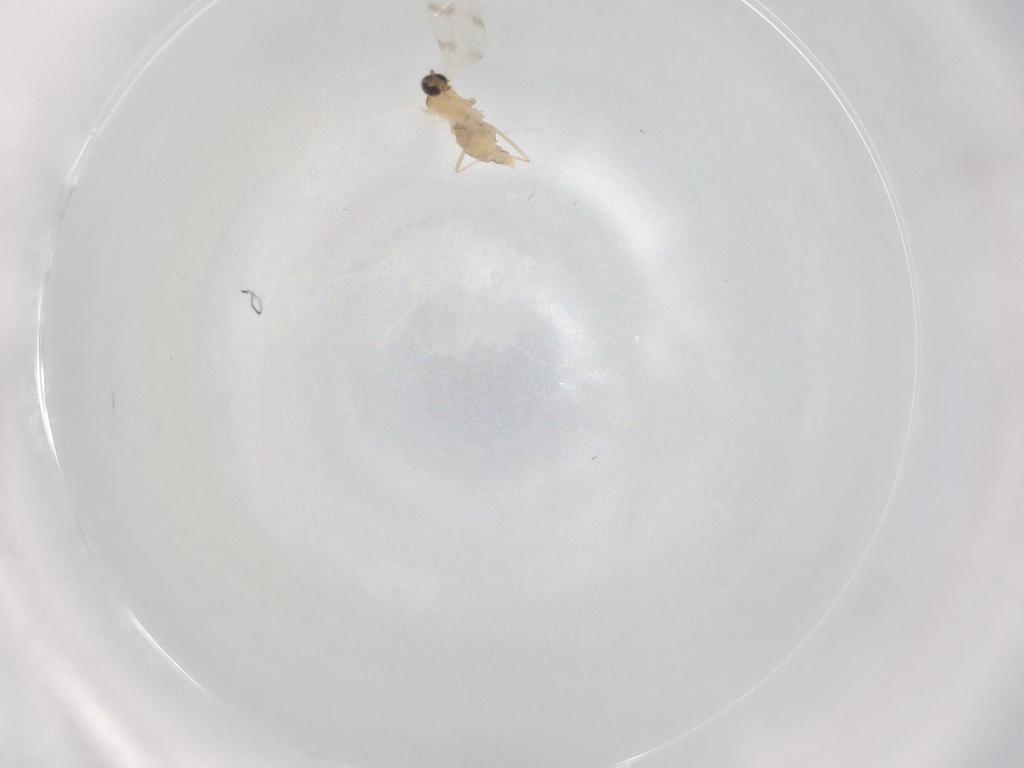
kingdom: Animalia
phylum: Arthropoda
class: Insecta
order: Diptera
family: Cecidomyiidae
